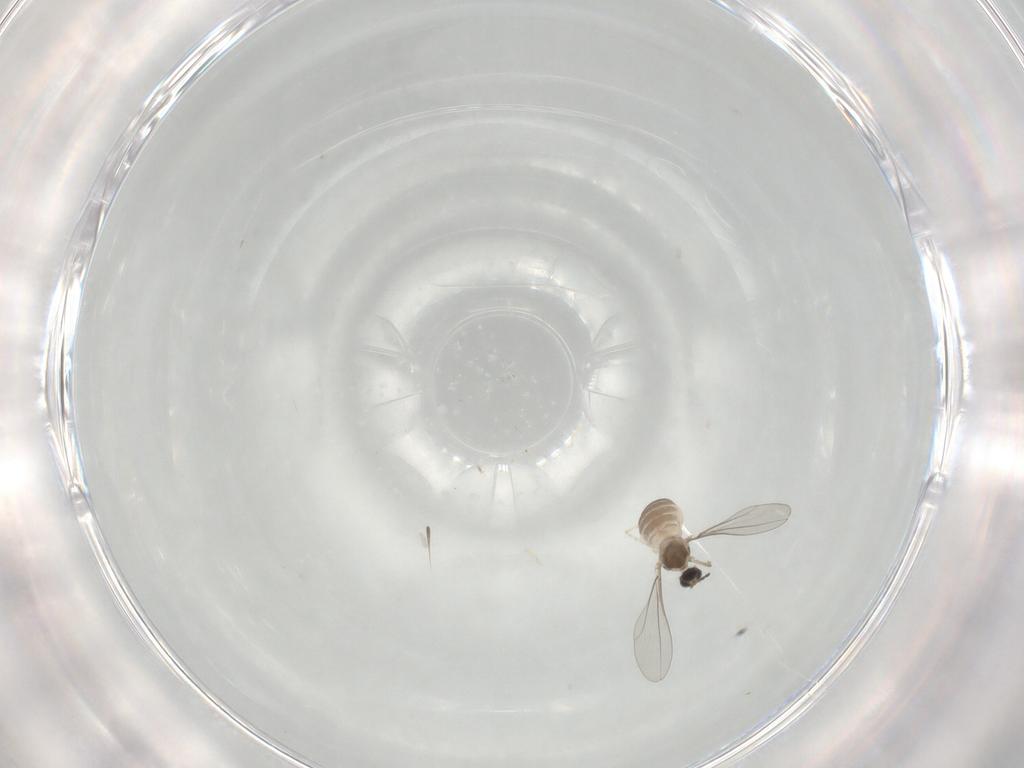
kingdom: Animalia
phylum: Arthropoda
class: Insecta
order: Diptera
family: Cecidomyiidae
